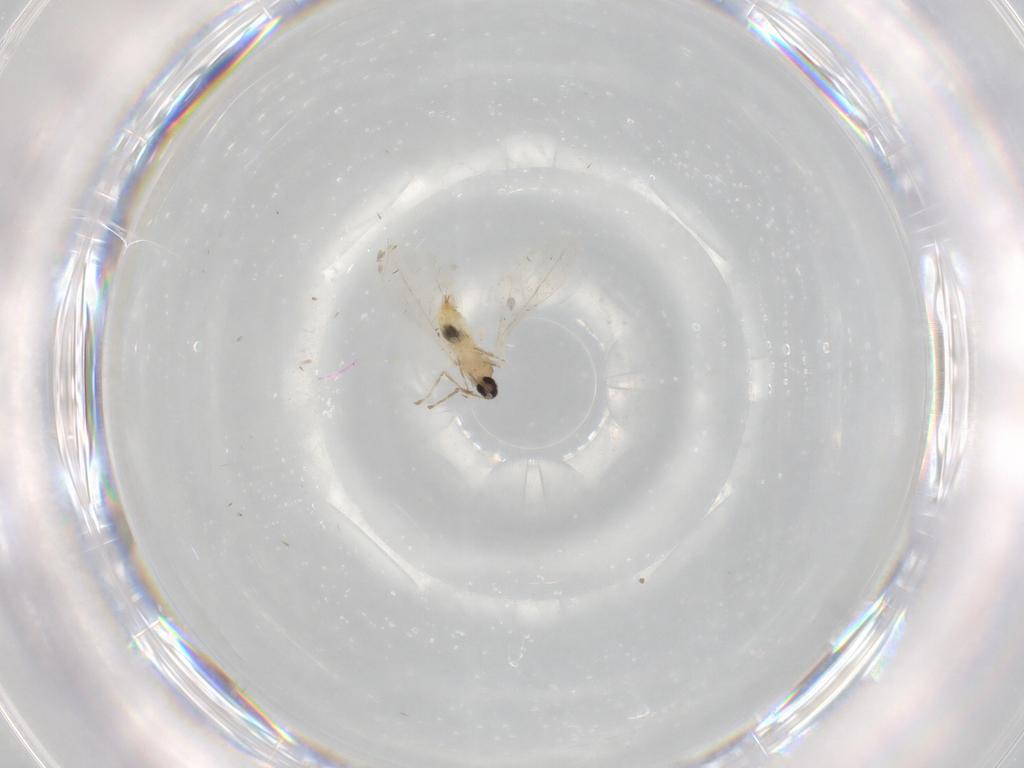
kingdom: Animalia
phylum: Arthropoda
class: Insecta
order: Diptera
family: Cecidomyiidae
